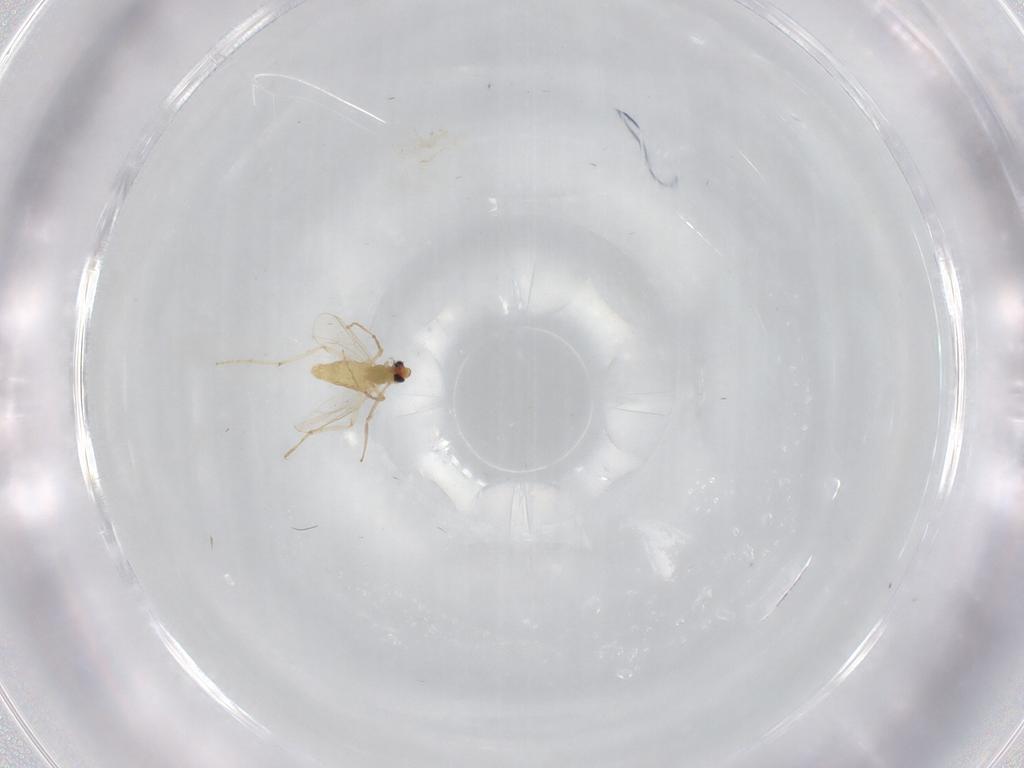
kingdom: Animalia
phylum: Arthropoda
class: Insecta
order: Diptera
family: Chironomidae
